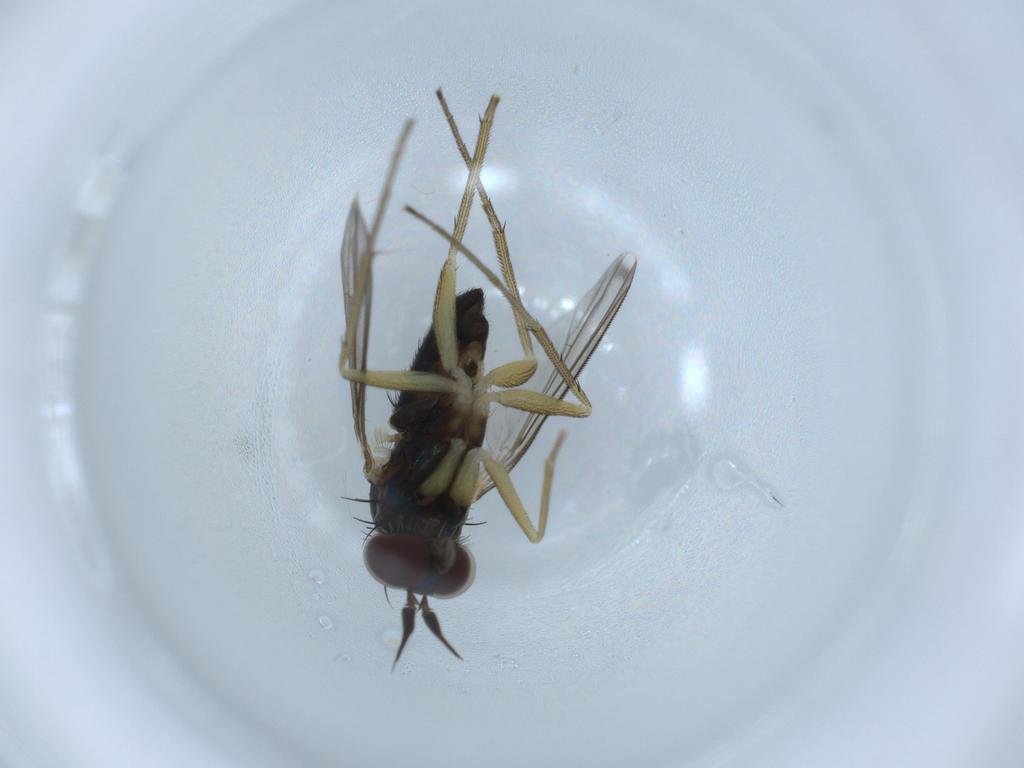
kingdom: Animalia
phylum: Arthropoda
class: Insecta
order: Diptera
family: Dolichopodidae
